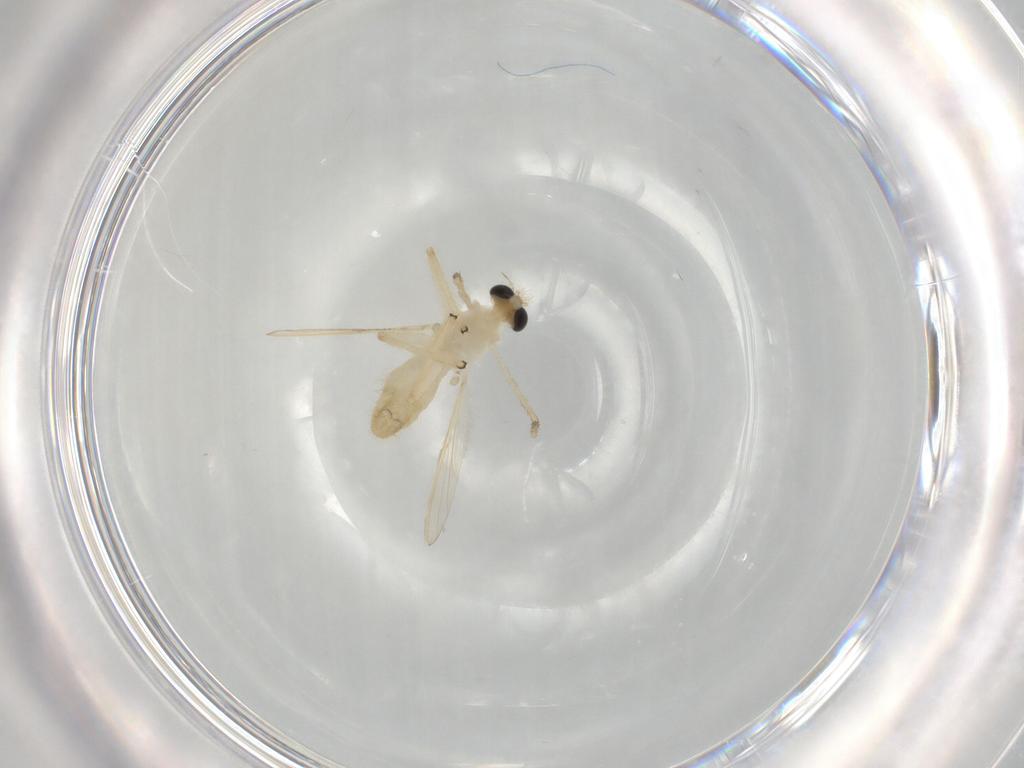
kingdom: Animalia
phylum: Arthropoda
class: Insecta
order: Diptera
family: Chironomidae
